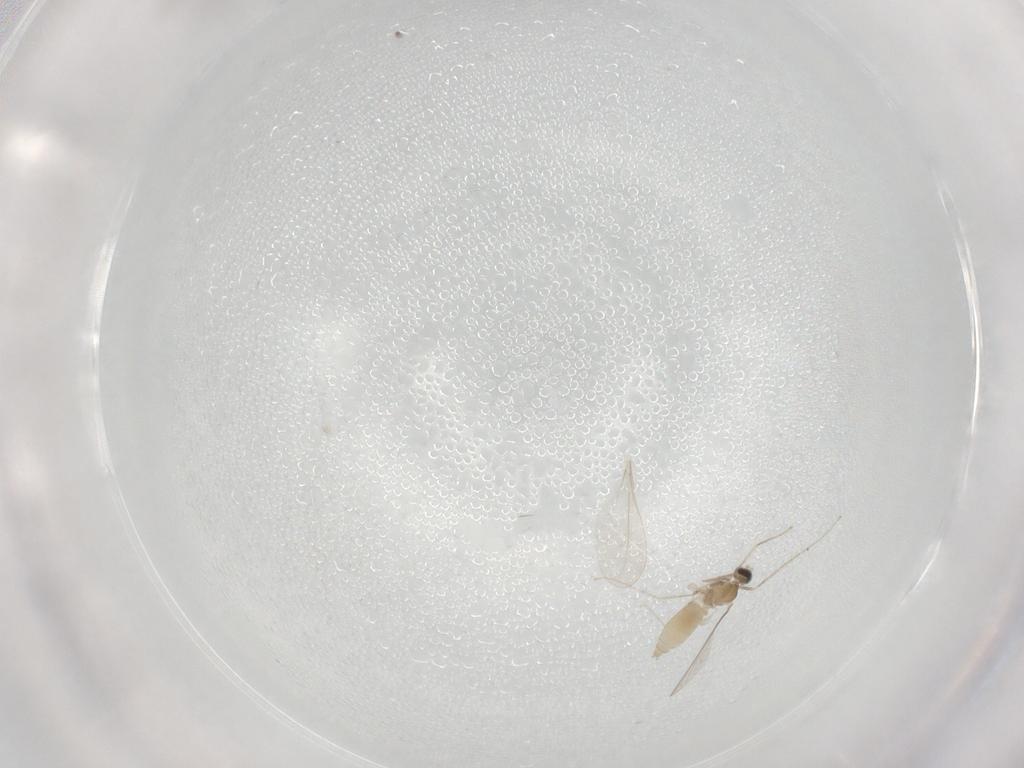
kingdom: Animalia
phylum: Arthropoda
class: Insecta
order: Diptera
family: Cecidomyiidae
